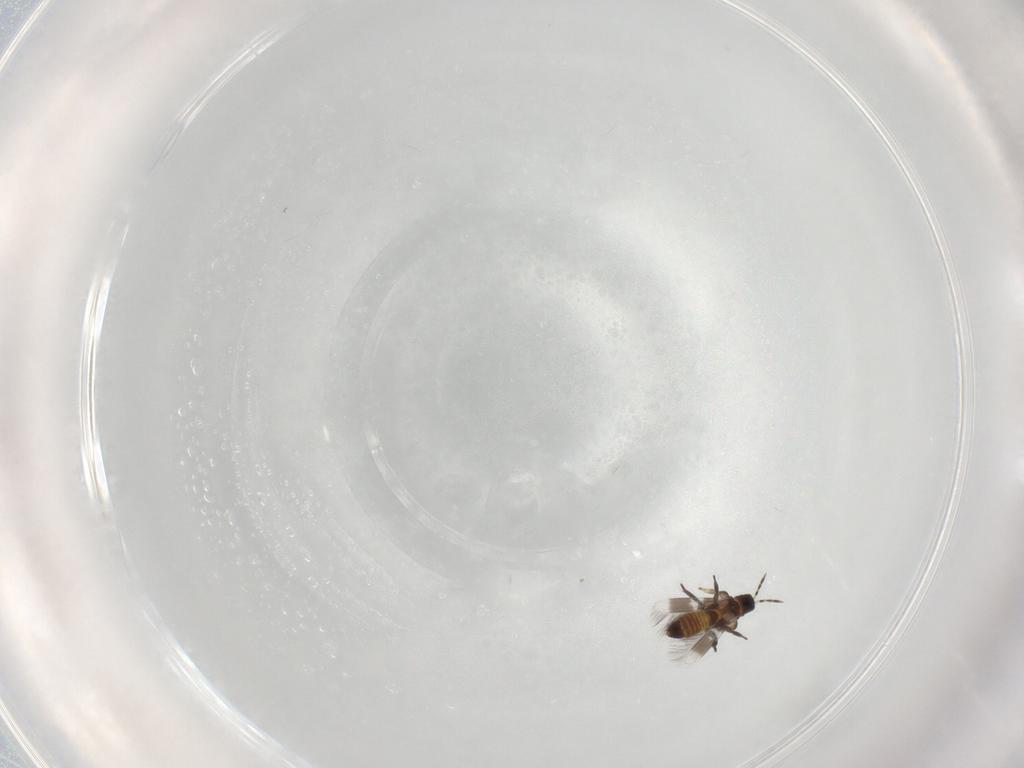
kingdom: Animalia
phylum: Arthropoda
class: Insecta
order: Thysanoptera
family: Aeolothripidae
